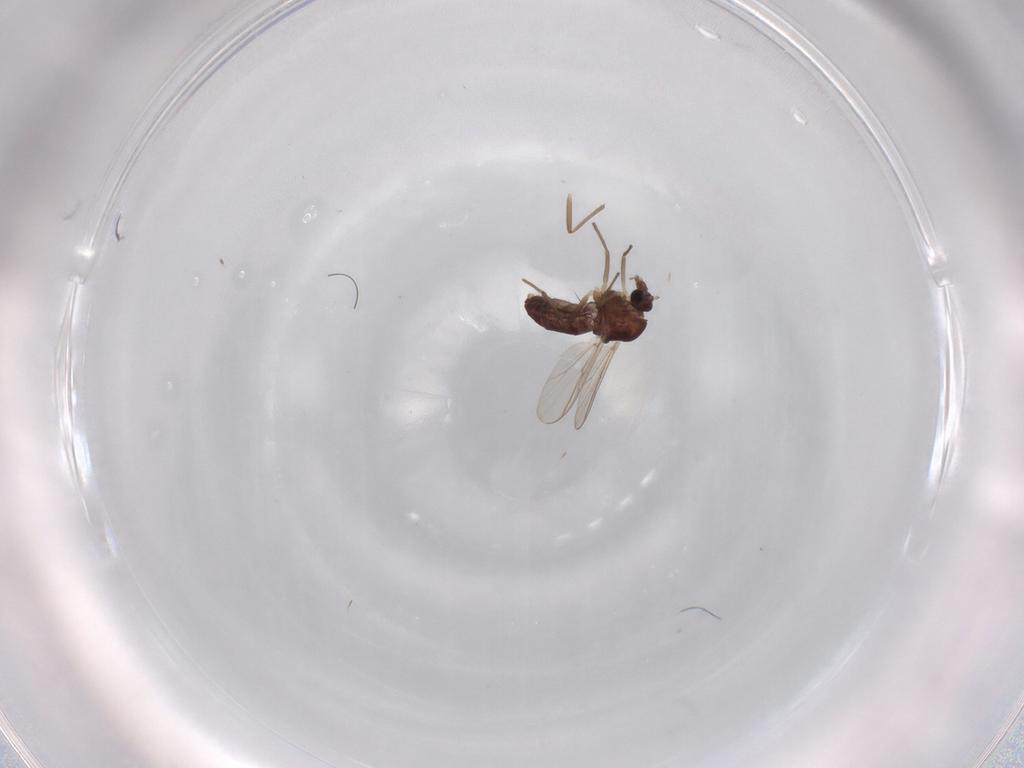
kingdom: Animalia
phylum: Arthropoda
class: Insecta
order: Diptera
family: Chironomidae
